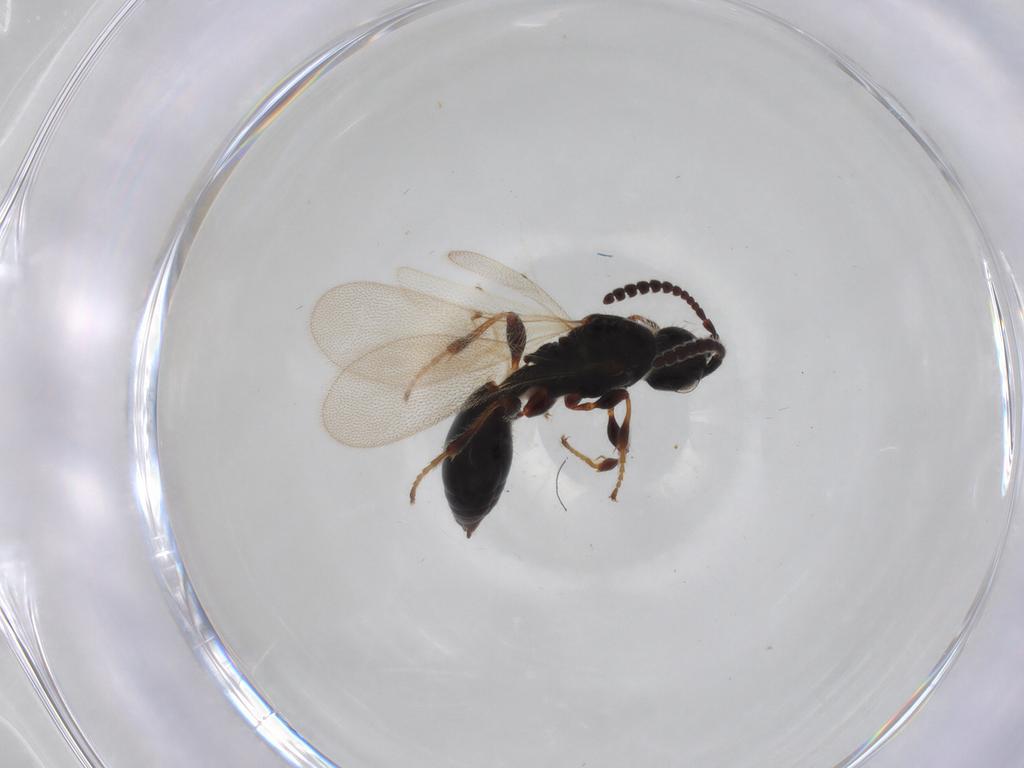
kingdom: Animalia
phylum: Arthropoda
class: Insecta
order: Hymenoptera
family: Diapriidae
